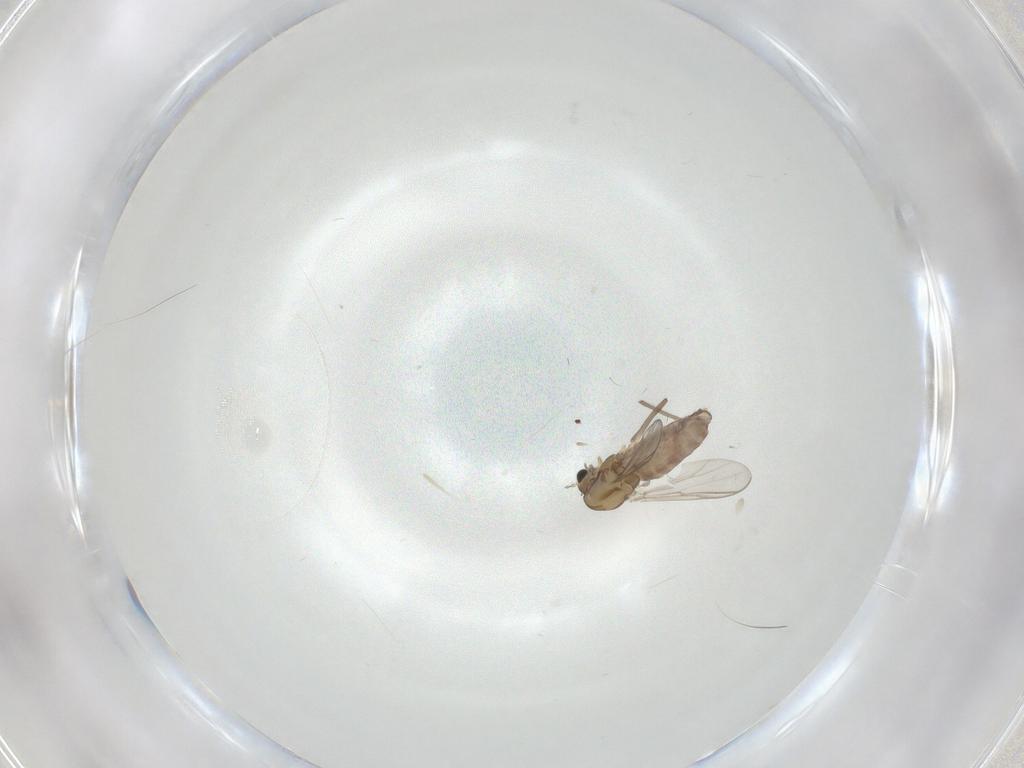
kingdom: Animalia
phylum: Arthropoda
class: Insecta
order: Diptera
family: Chironomidae
